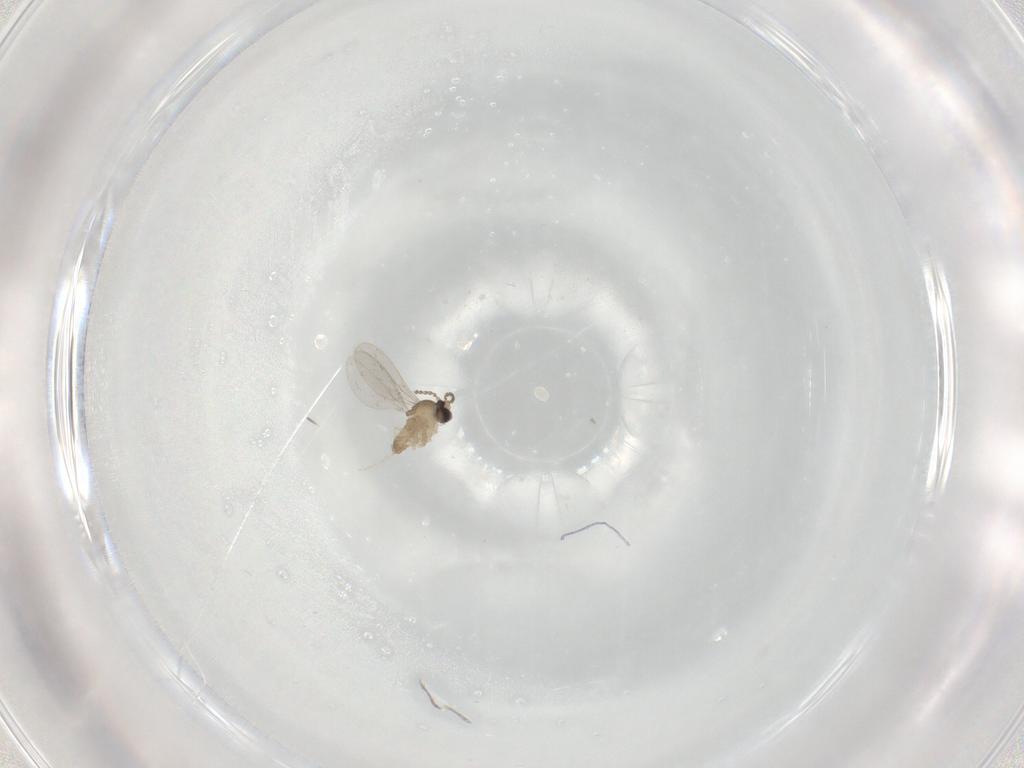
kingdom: Animalia
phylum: Arthropoda
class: Insecta
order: Diptera
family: Cecidomyiidae
